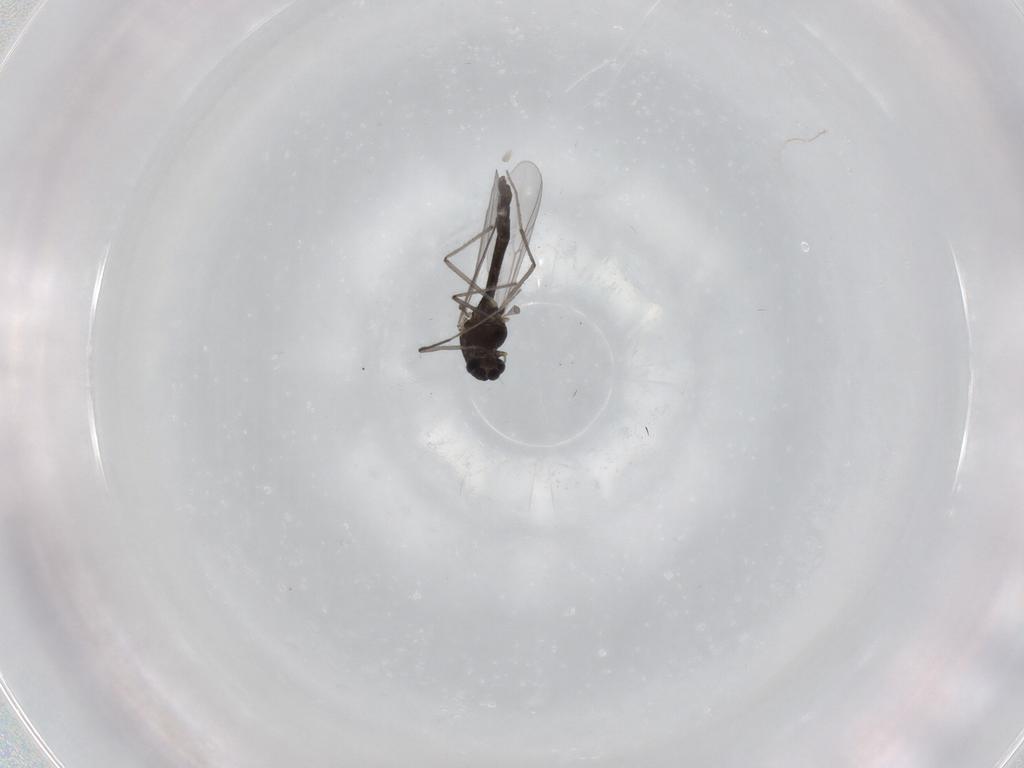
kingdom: Animalia
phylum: Arthropoda
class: Insecta
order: Diptera
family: Chironomidae
